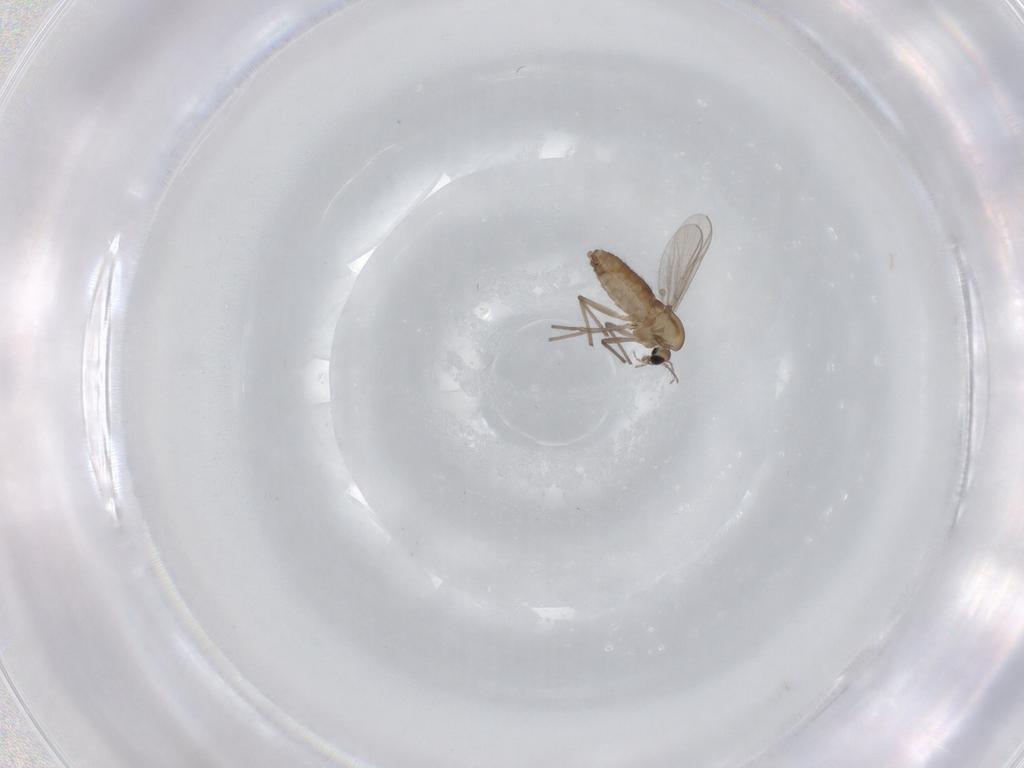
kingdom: Animalia
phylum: Arthropoda
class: Insecta
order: Diptera
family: Chironomidae
